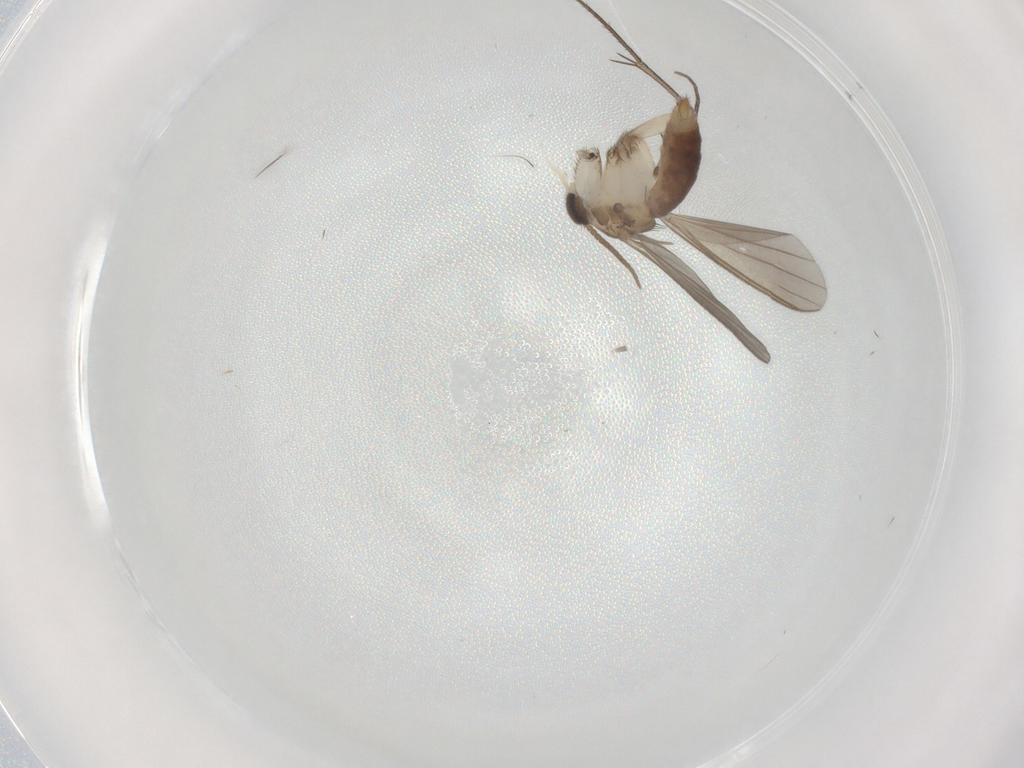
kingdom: Animalia
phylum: Arthropoda
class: Insecta
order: Diptera
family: Mycetophilidae
